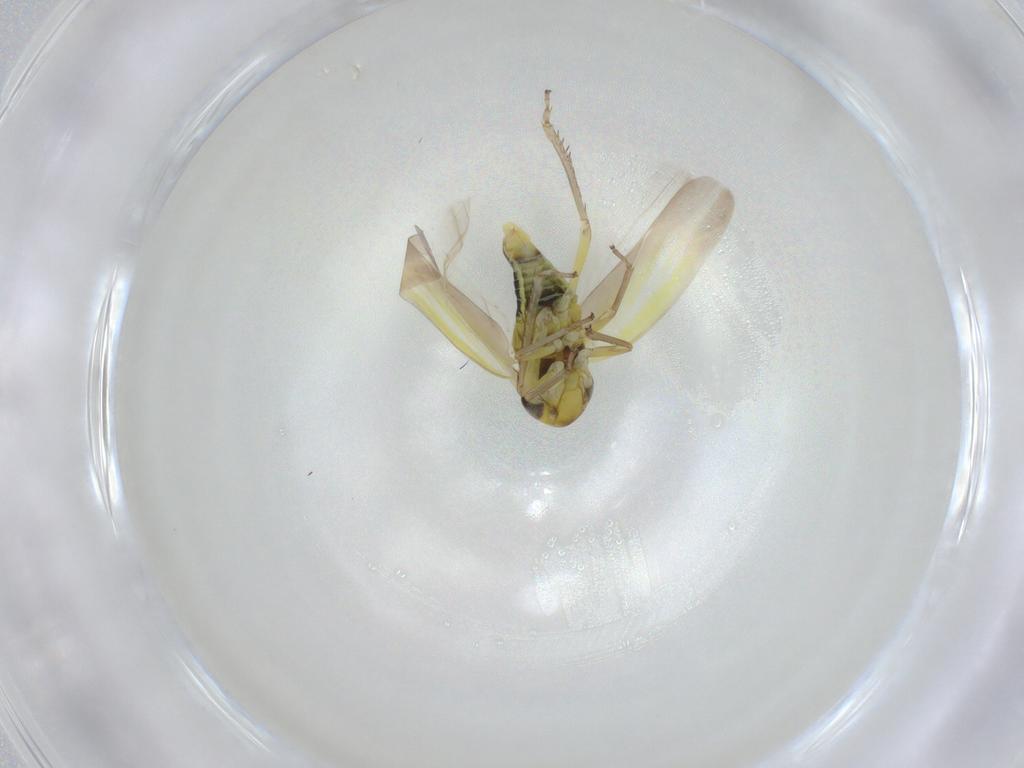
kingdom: Animalia
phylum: Arthropoda
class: Insecta
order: Hemiptera
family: Cicadellidae
